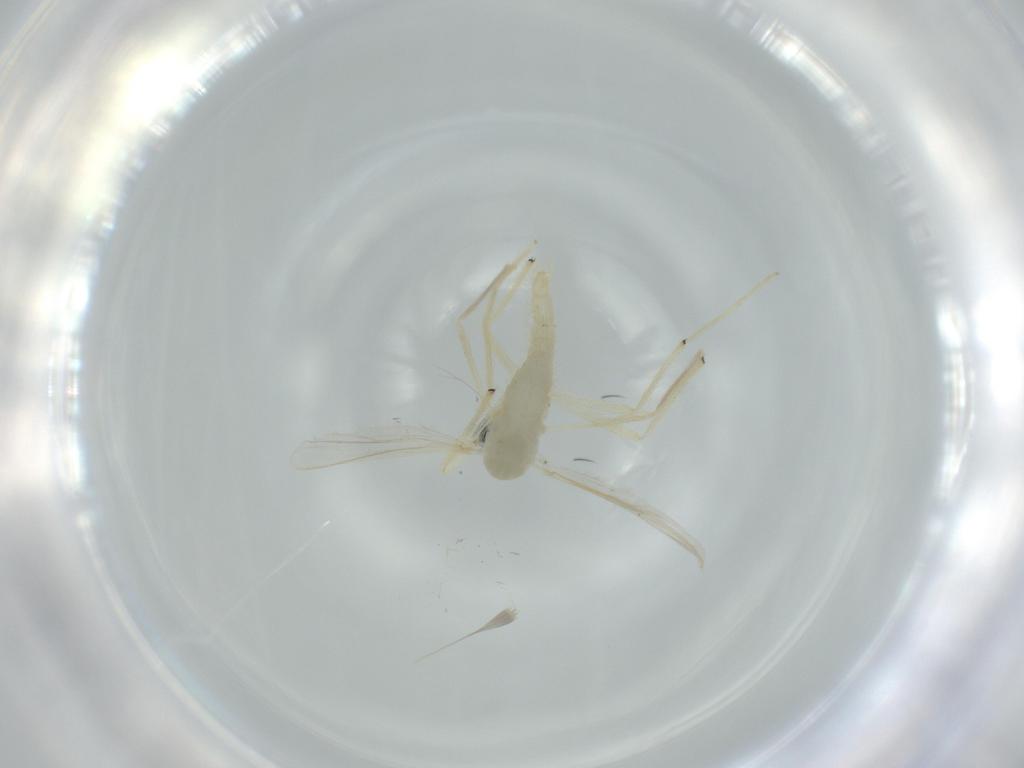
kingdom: Animalia
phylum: Arthropoda
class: Insecta
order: Diptera
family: Chironomidae
